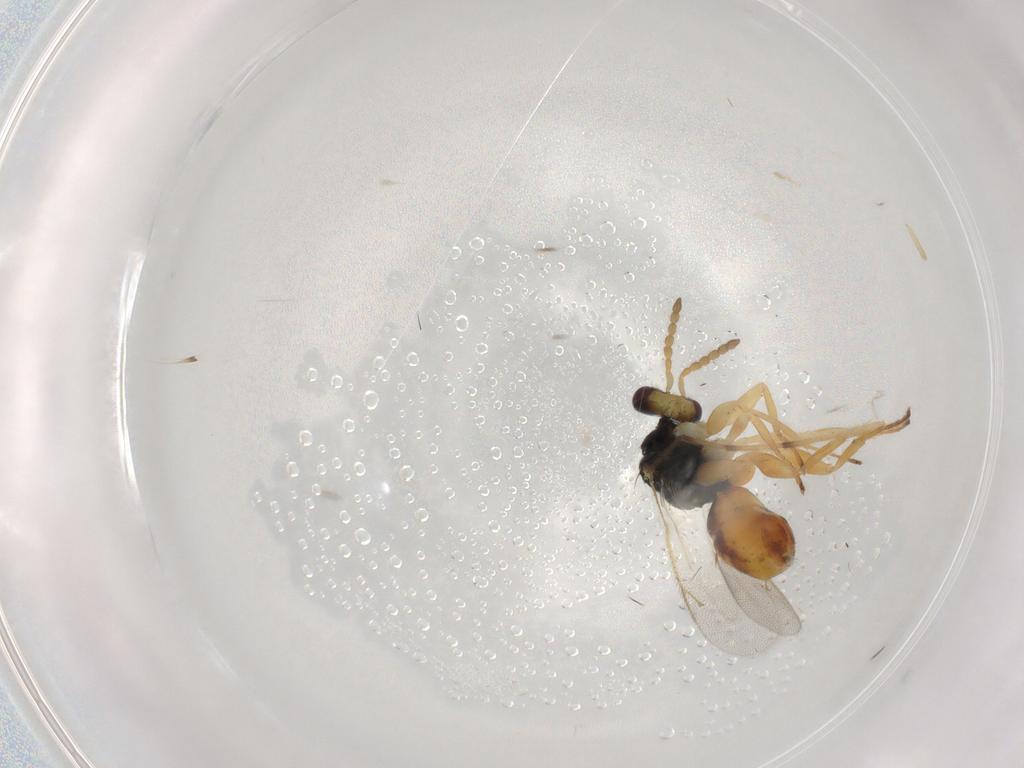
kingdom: Animalia
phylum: Arthropoda
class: Insecta
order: Hymenoptera
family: Eulophidae
